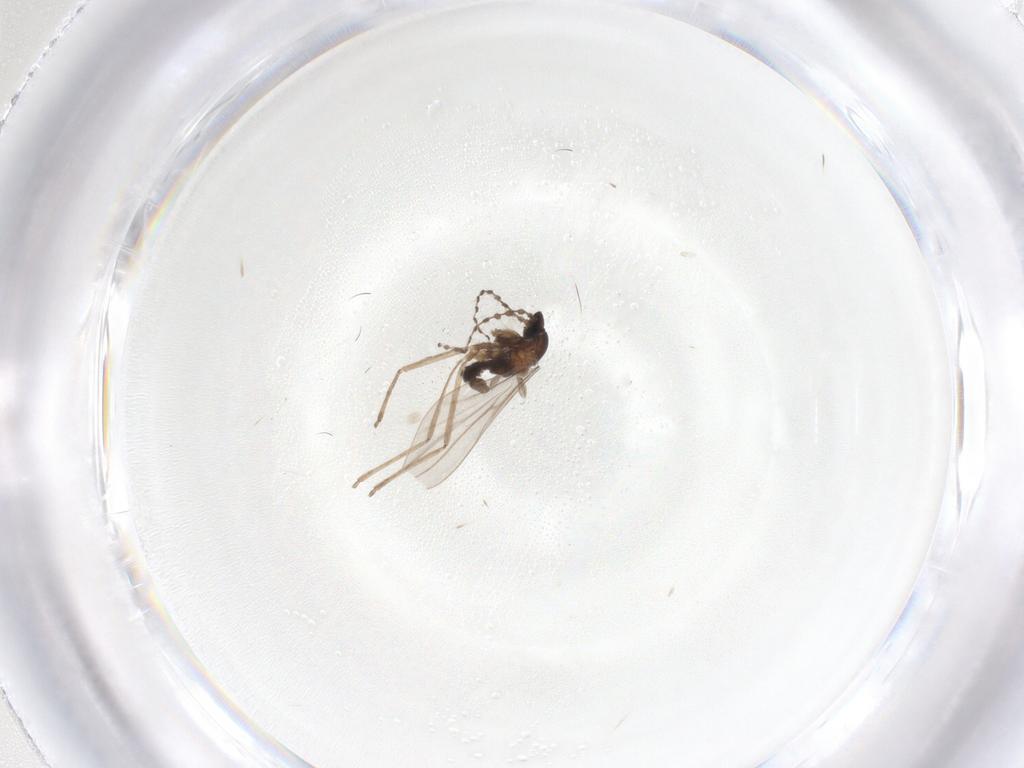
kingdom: Animalia
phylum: Arthropoda
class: Insecta
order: Diptera
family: Cecidomyiidae
